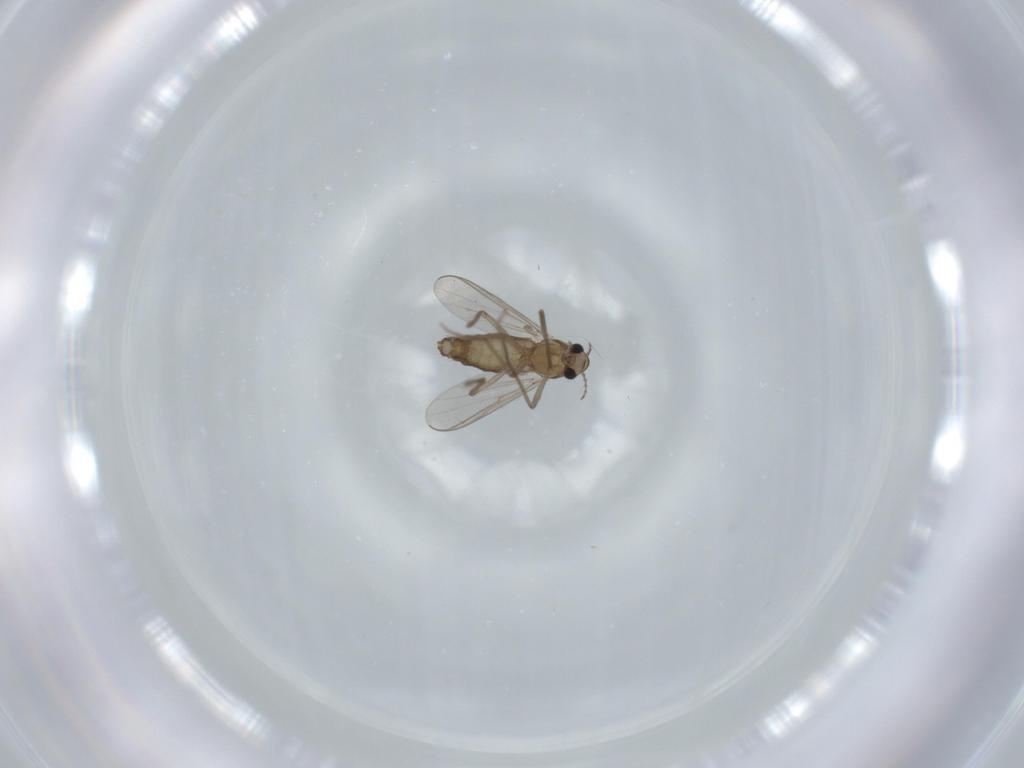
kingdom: Animalia
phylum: Arthropoda
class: Insecta
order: Diptera
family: Chironomidae
